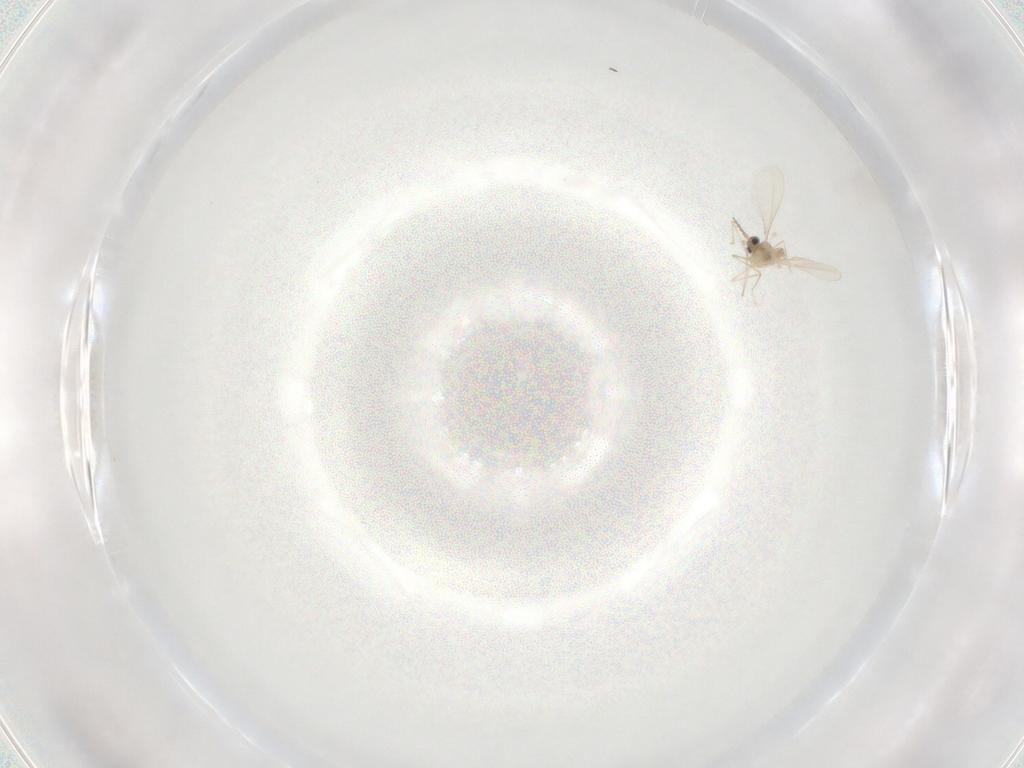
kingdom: Animalia
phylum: Arthropoda
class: Insecta
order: Diptera
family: Cecidomyiidae
